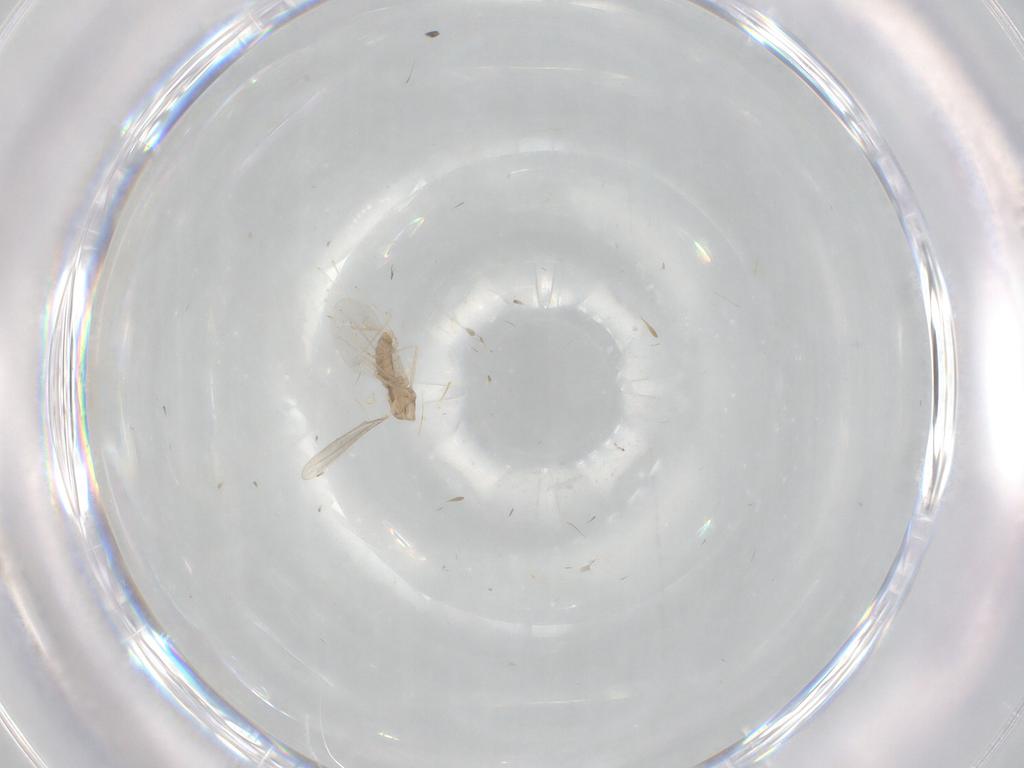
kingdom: Animalia
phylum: Arthropoda
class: Insecta
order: Diptera
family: Cecidomyiidae
